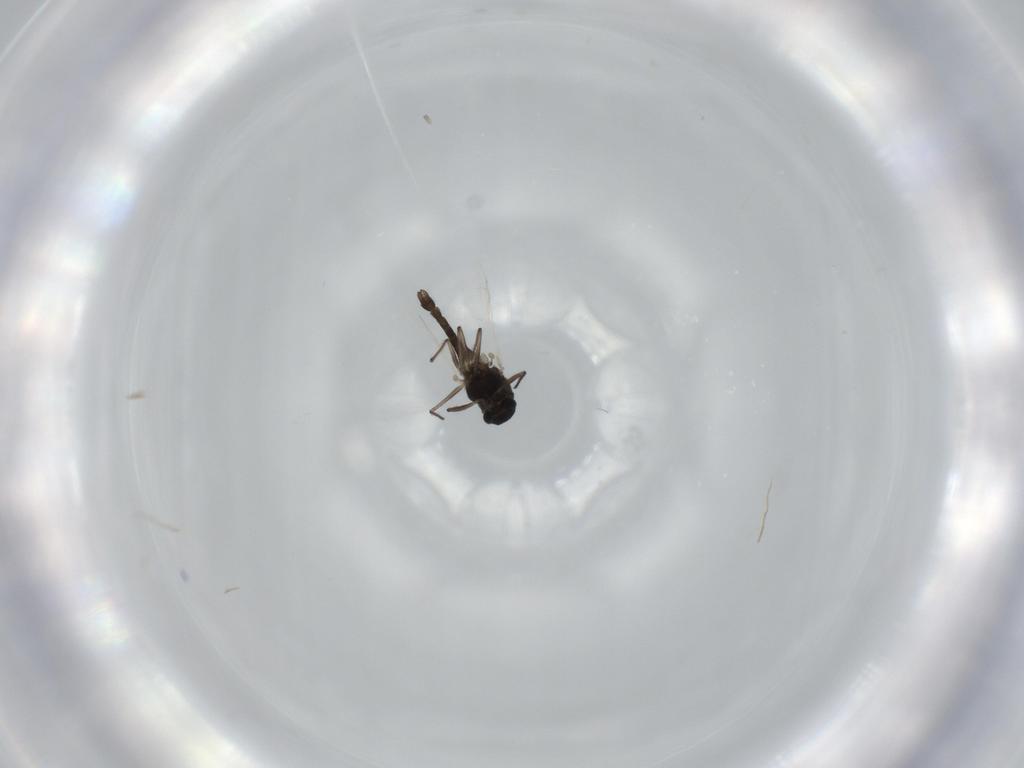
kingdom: Animalia
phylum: Arthropoda
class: Insecta
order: Diptera
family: Chironomidae
